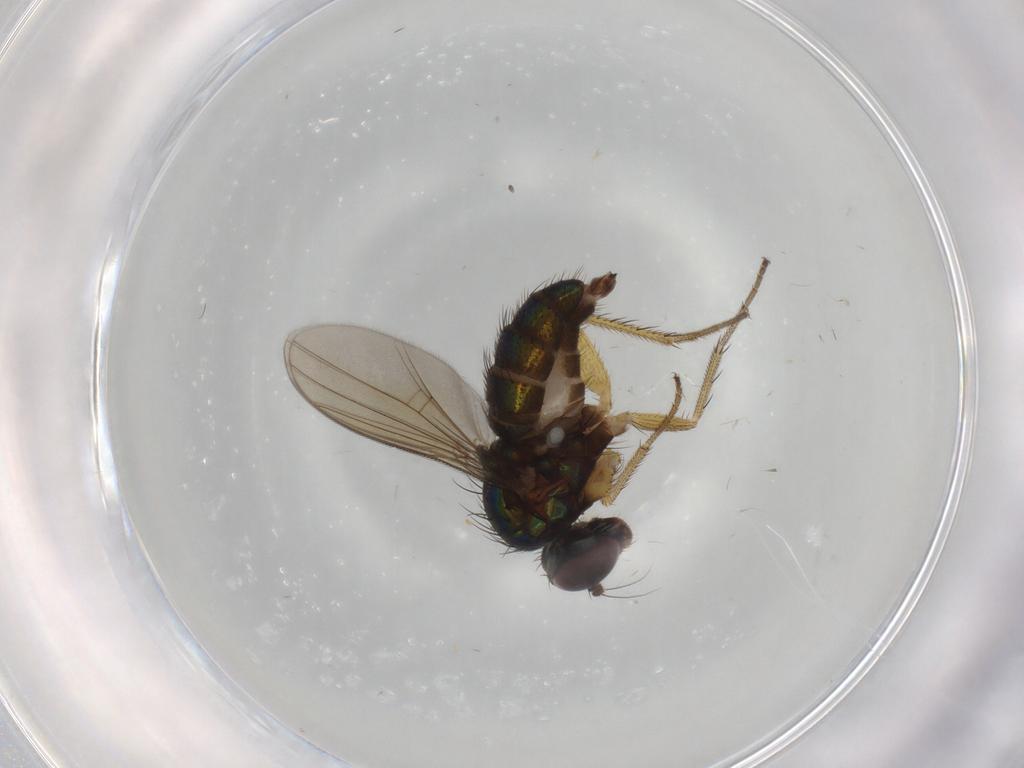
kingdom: Animalia
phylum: Arthropoda
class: Insecta
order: Diptera
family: Dolichopodidae
